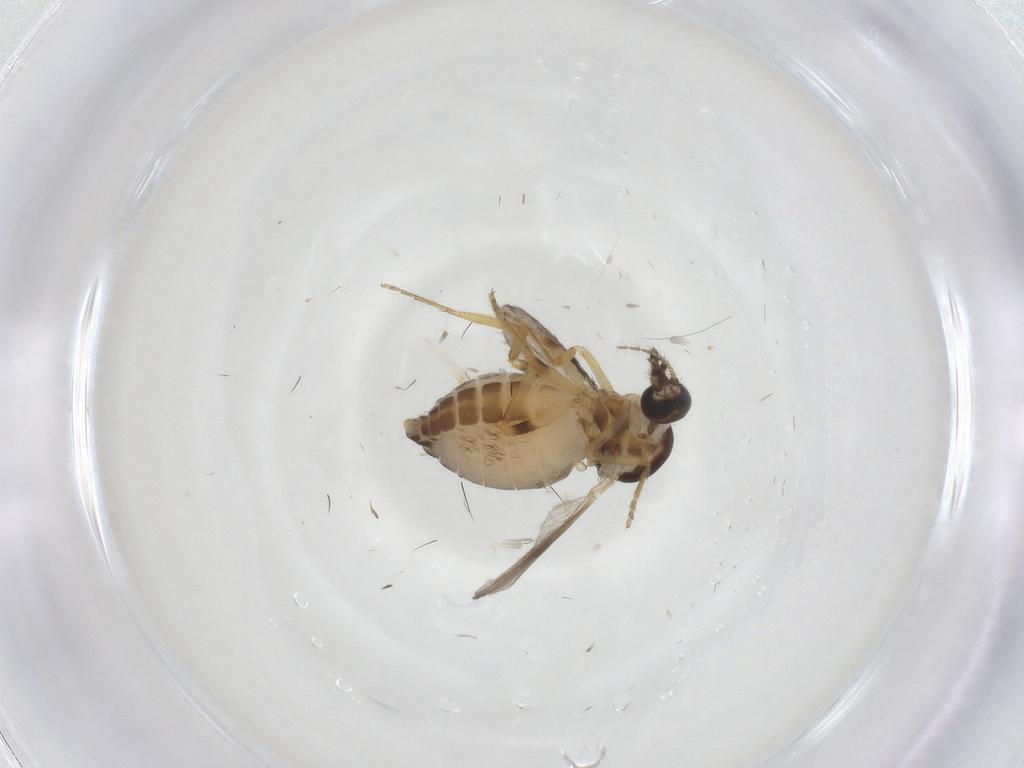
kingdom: Animalia
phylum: Arthropoda
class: Insecta
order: Diptera
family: Ceratopogonidae
